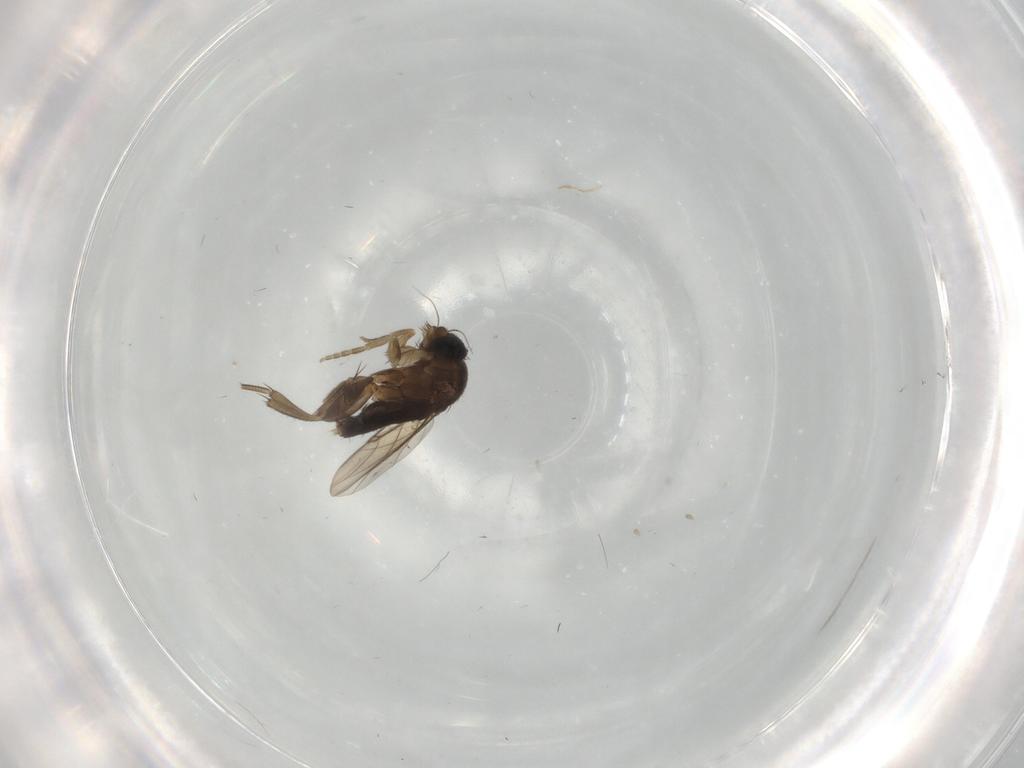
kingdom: Animalia
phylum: Arthropoda
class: Insecta
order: Diptera
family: Phoridae
